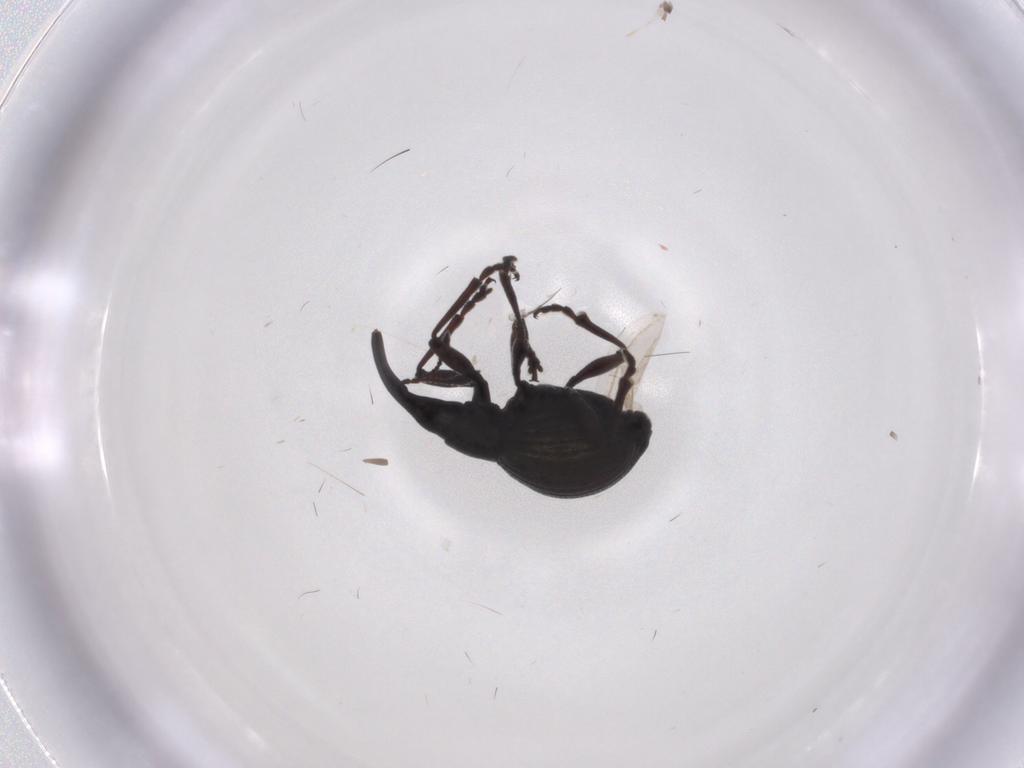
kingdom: Animalia
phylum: Arthropoda
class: Insecta
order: Coleoptera
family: Brentidae
